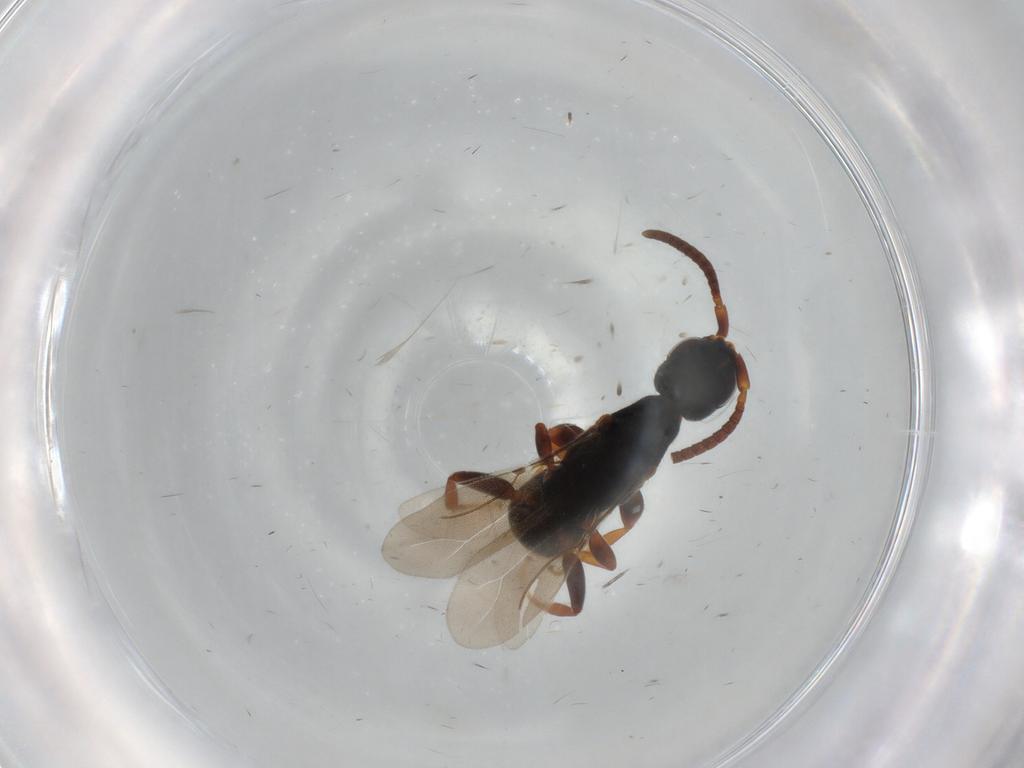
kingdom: Animalia
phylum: Arthropoda
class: Insecta
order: Hymenoptera
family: Bethylidae
